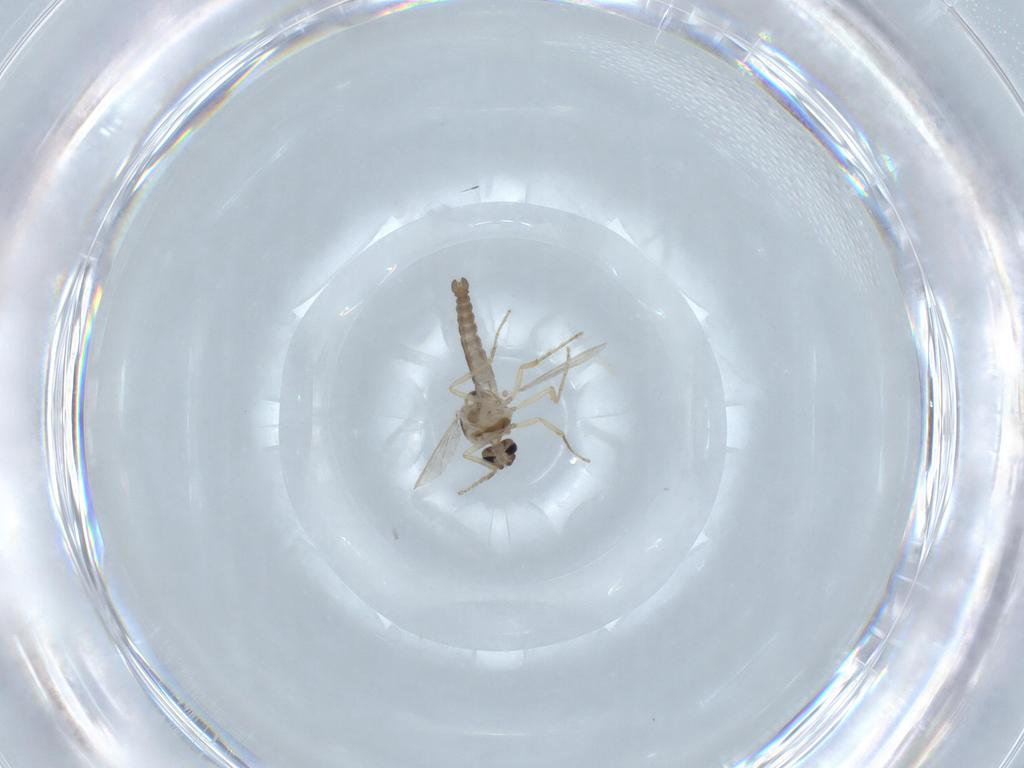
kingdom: Animalia
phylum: Arthropoda
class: Insecta
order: Diptera
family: Ceratopogonidae
